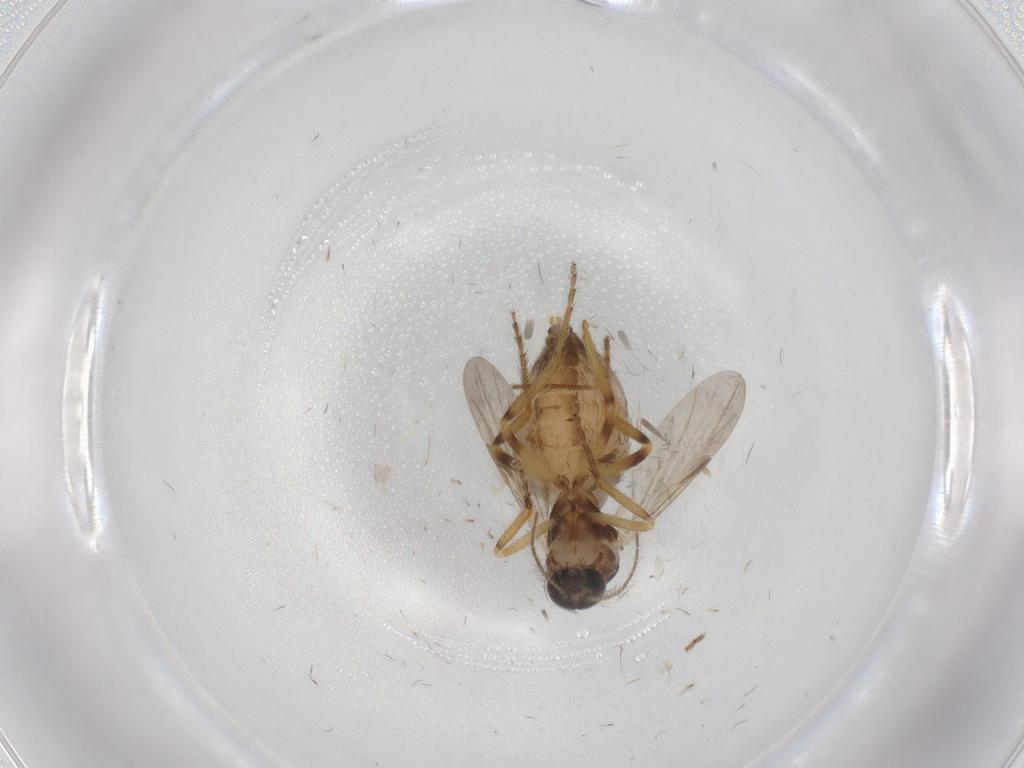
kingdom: Animalia
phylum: Arthropoda
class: Insecta
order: Diptera
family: Ceratopogonidae
